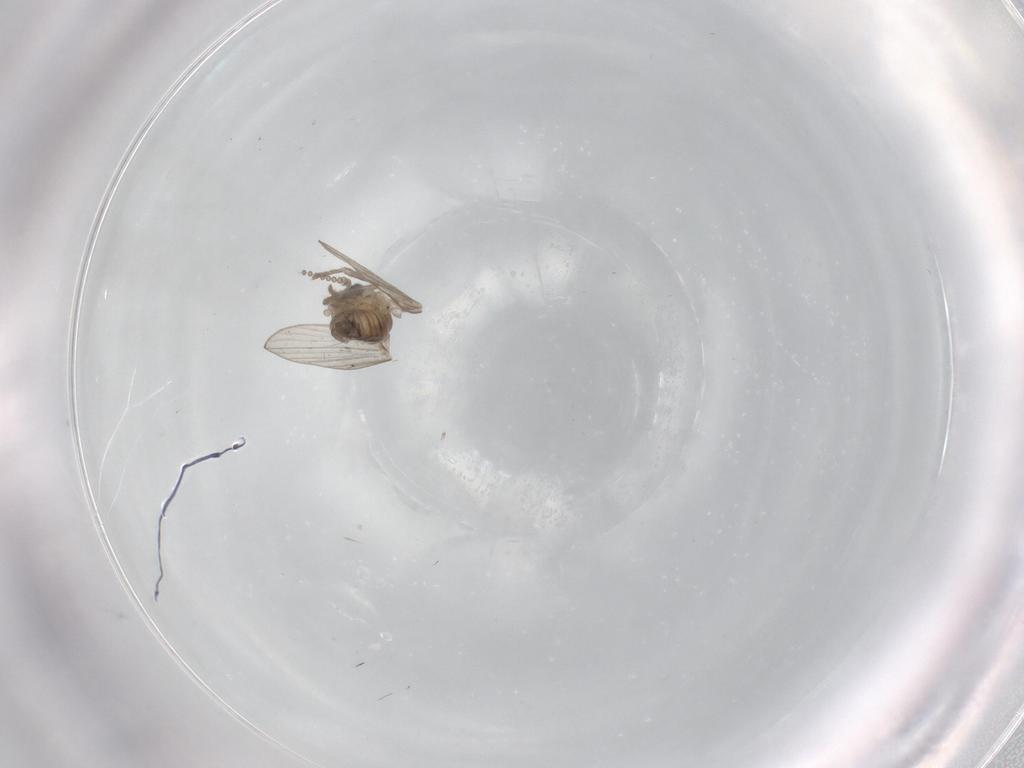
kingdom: Animalia
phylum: Arthropoda
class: Insecta
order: Diptera
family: Psychodidae
